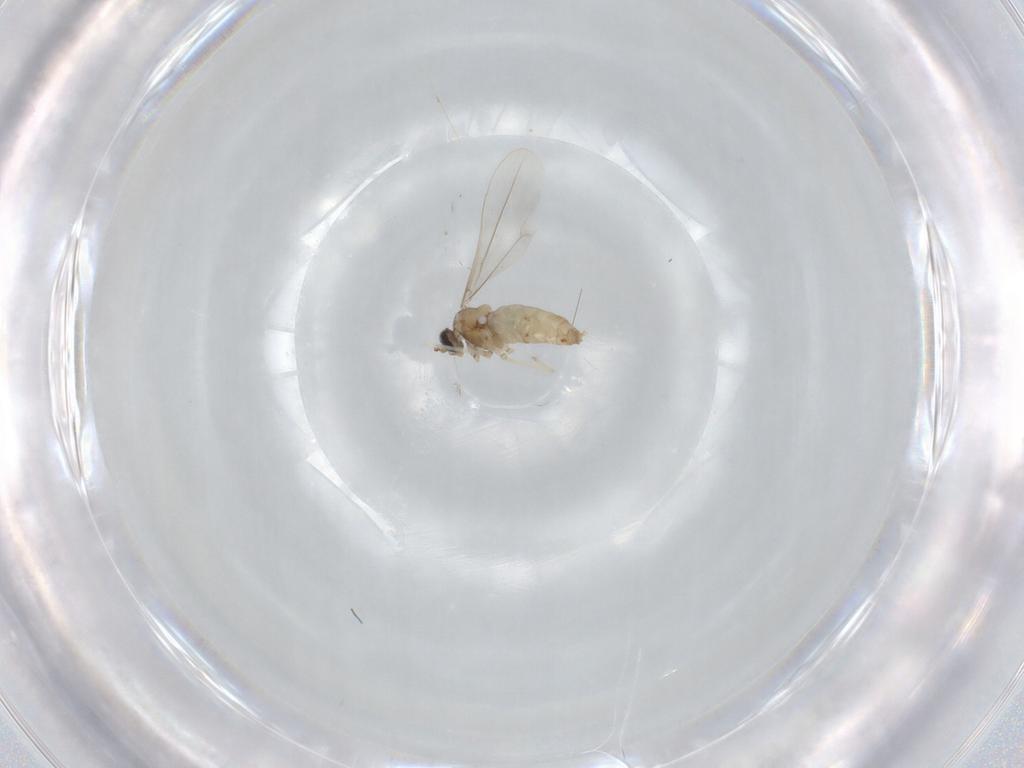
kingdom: Animalia
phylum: Arthropoda
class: Insecta
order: Diptera
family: Cecidomyiidae
